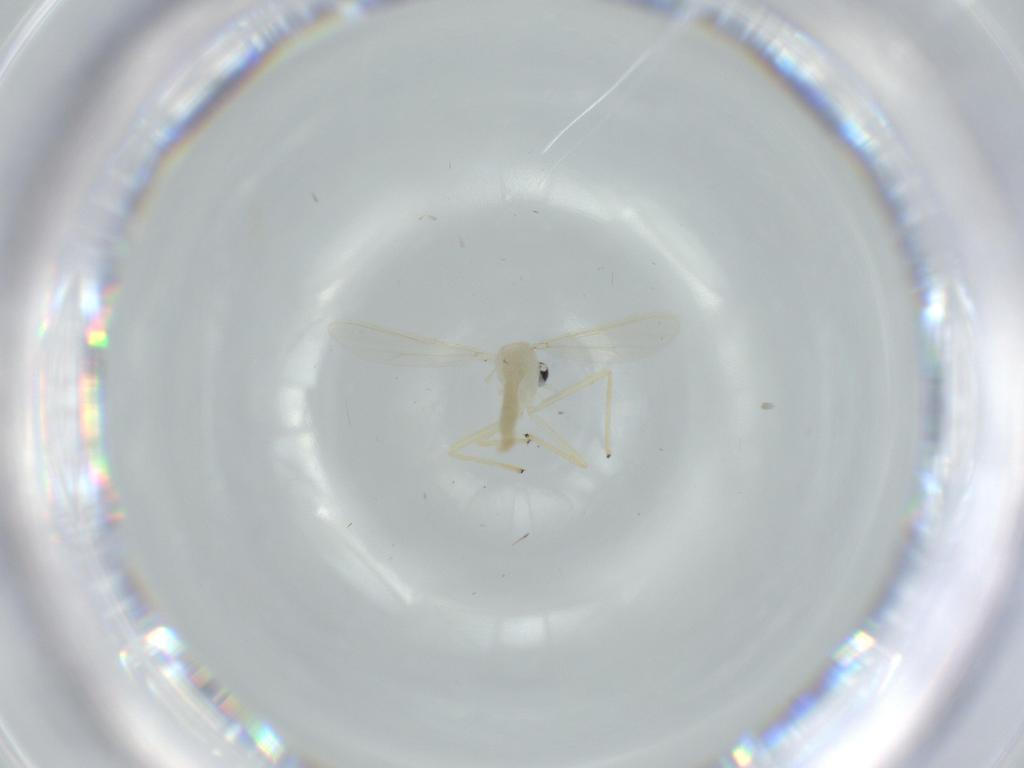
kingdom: Animalia
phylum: Arthropoda
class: Insecta
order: Diptera
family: Chironomidae
